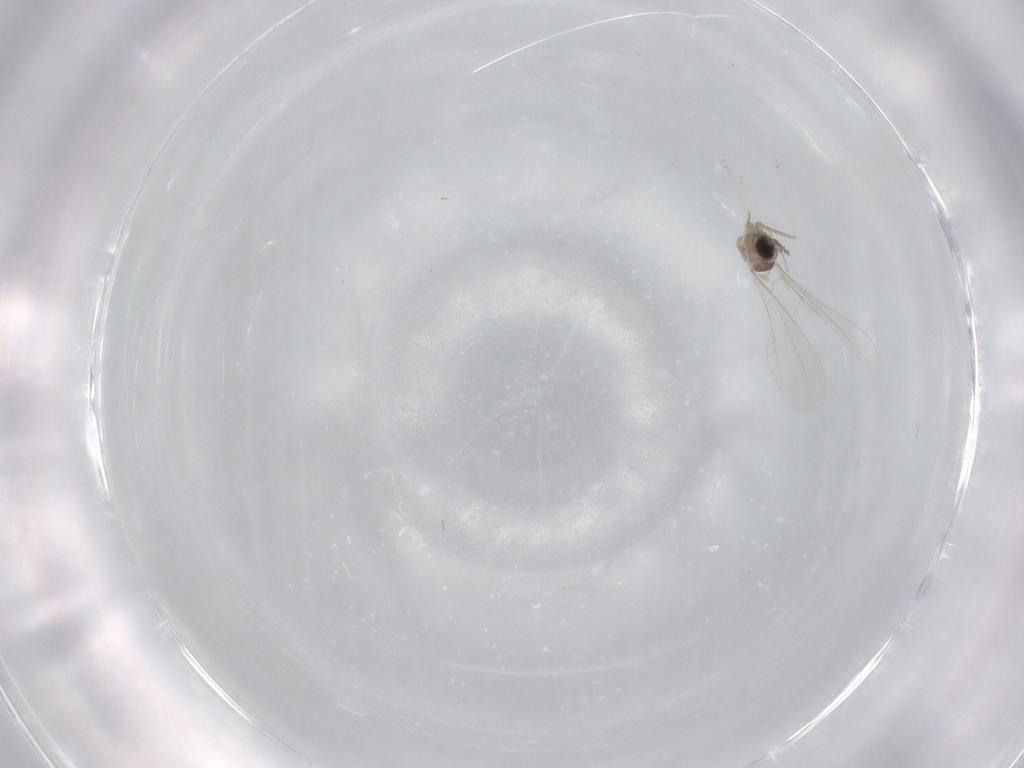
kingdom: Animalia
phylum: Arthropoda
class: Insecta
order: Diptera
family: Cecidomyiidae
